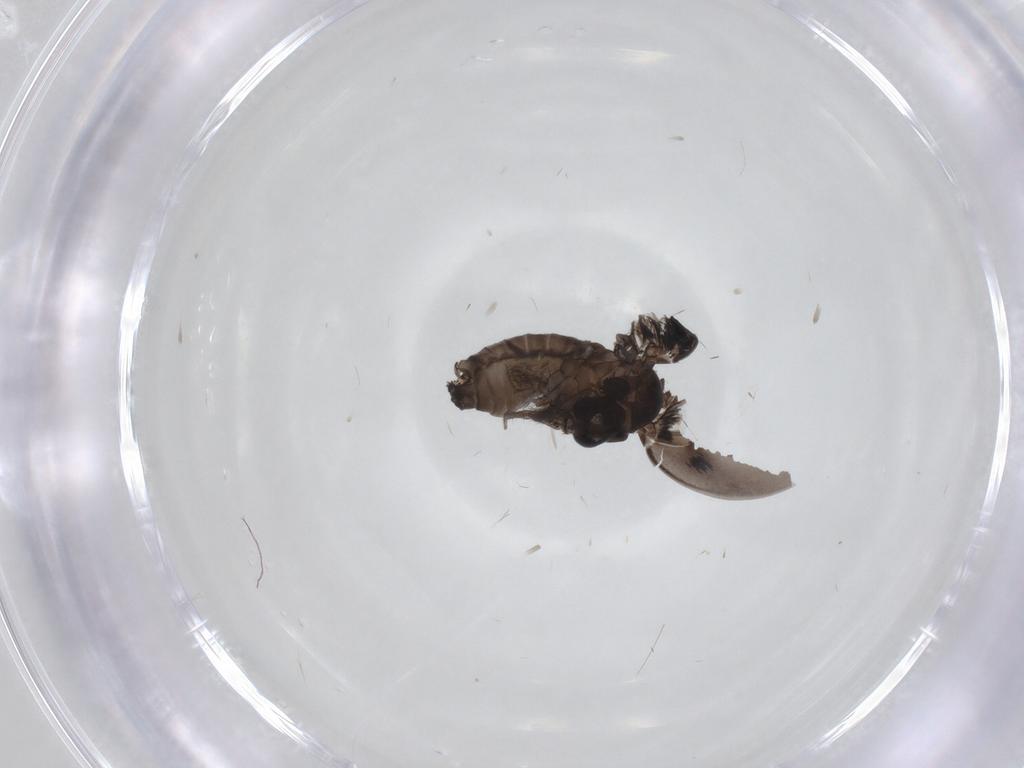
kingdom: Animalia
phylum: Arthropoda
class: Insecta
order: Diptera
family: Psychodidae
